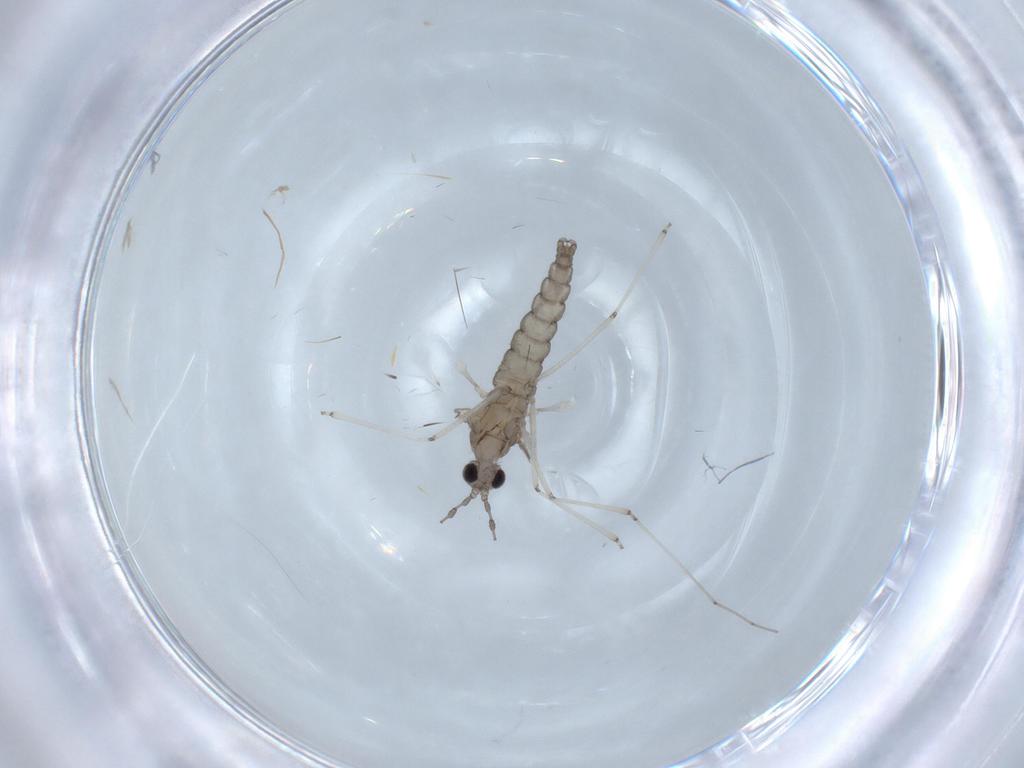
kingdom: Animalia
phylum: Arthropoda
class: Insecta
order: Diptera
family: Cecidomyiidae
